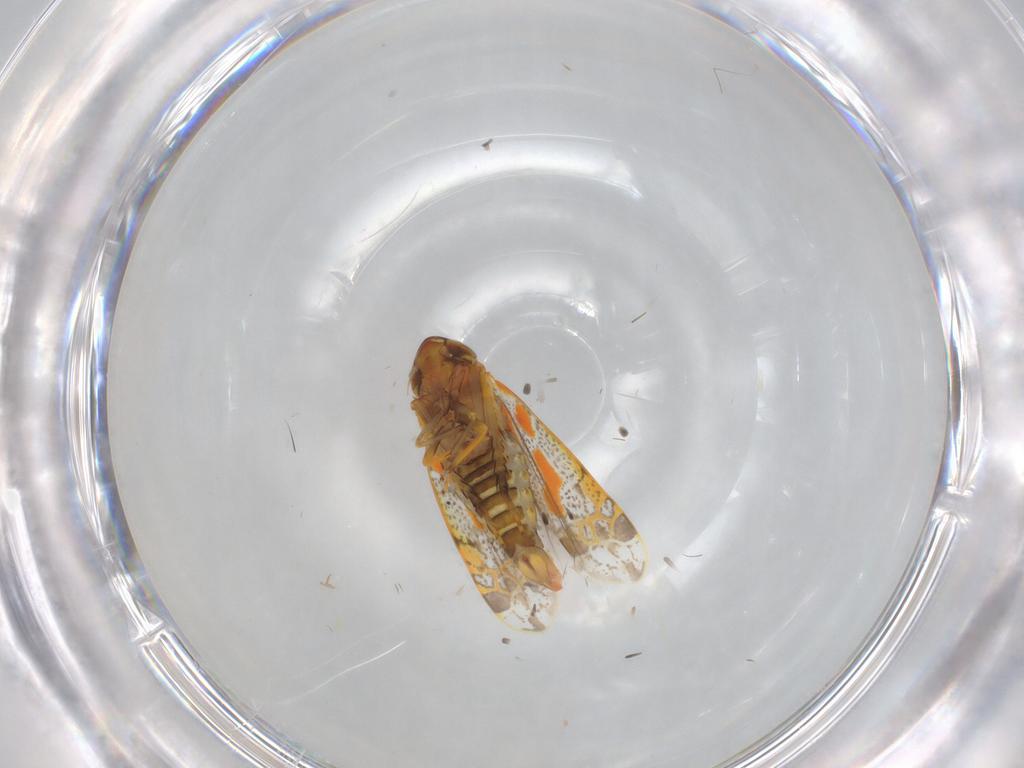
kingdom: Animalia
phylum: Arthropoda
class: Insecta
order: Hemiptera
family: Cicadellidae
